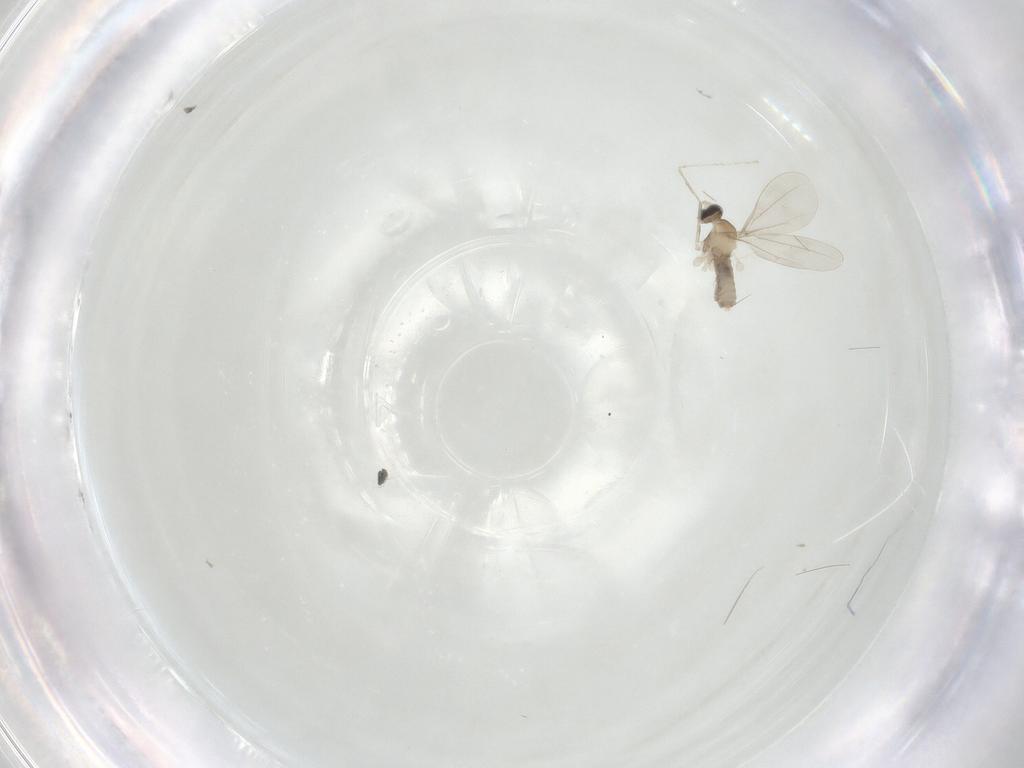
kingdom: Animalia
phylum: Arthropoda
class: Insecta
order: Diptera
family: Cecidomyiidae
